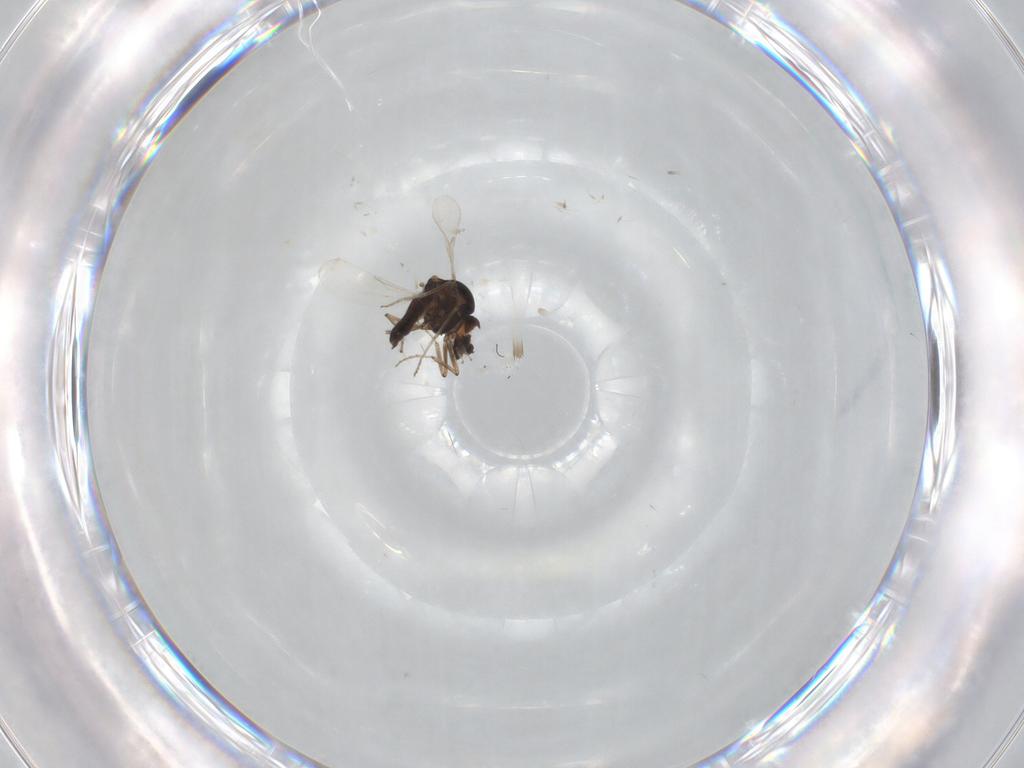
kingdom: Animalia
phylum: Arthropoda
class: Insecta
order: Diptera
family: Ceratopogonidae
